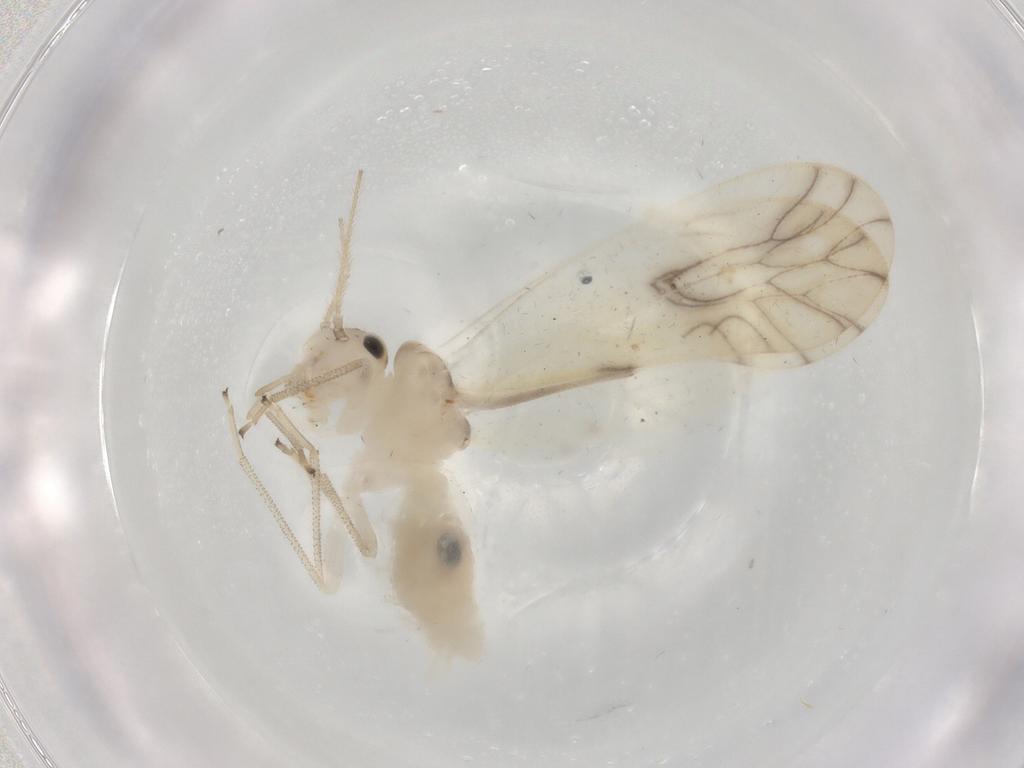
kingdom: Animalia
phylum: Arthropoda
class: Insecta
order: Psocodea
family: Caeciliusidae
